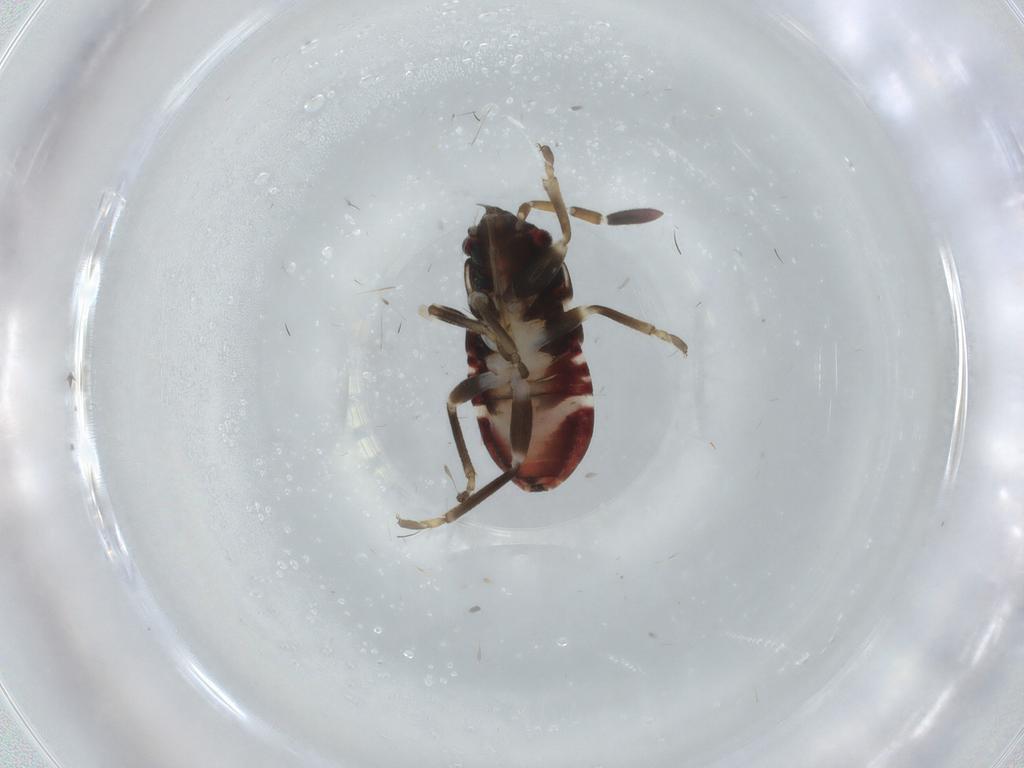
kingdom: Animalia
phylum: Arthropoda
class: Insecta
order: Hemiptera
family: Rhyparochromidae
